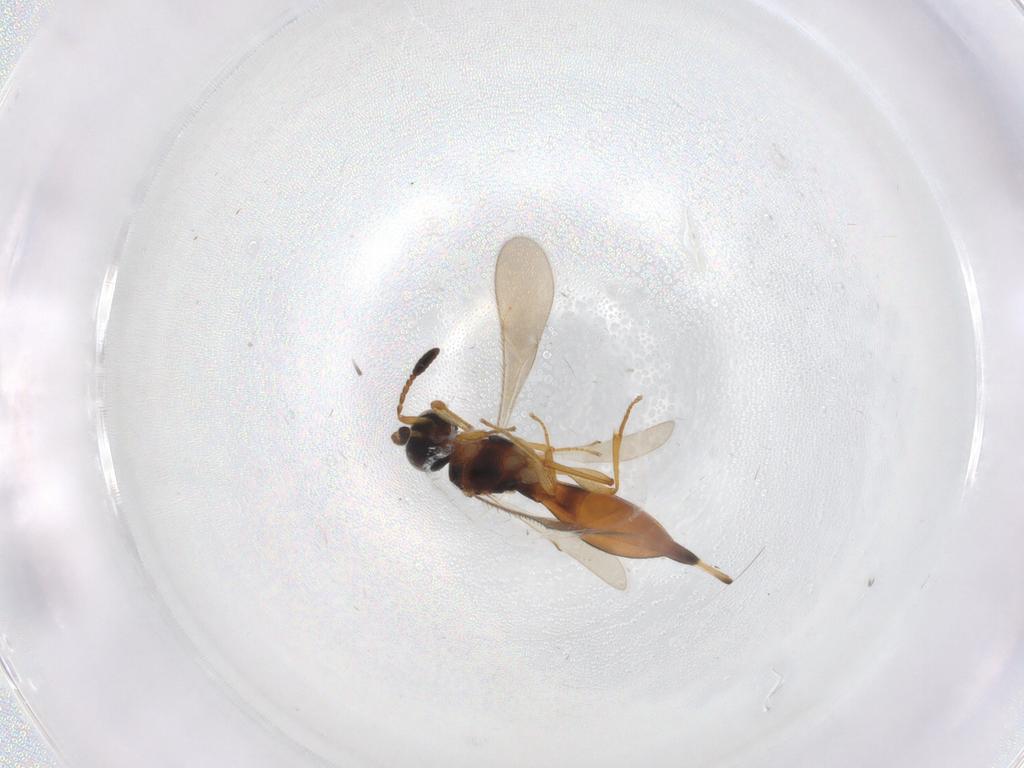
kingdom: Animalia
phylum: Arthropoda
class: Insecta
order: Hymenoptera
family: Scelionidae
